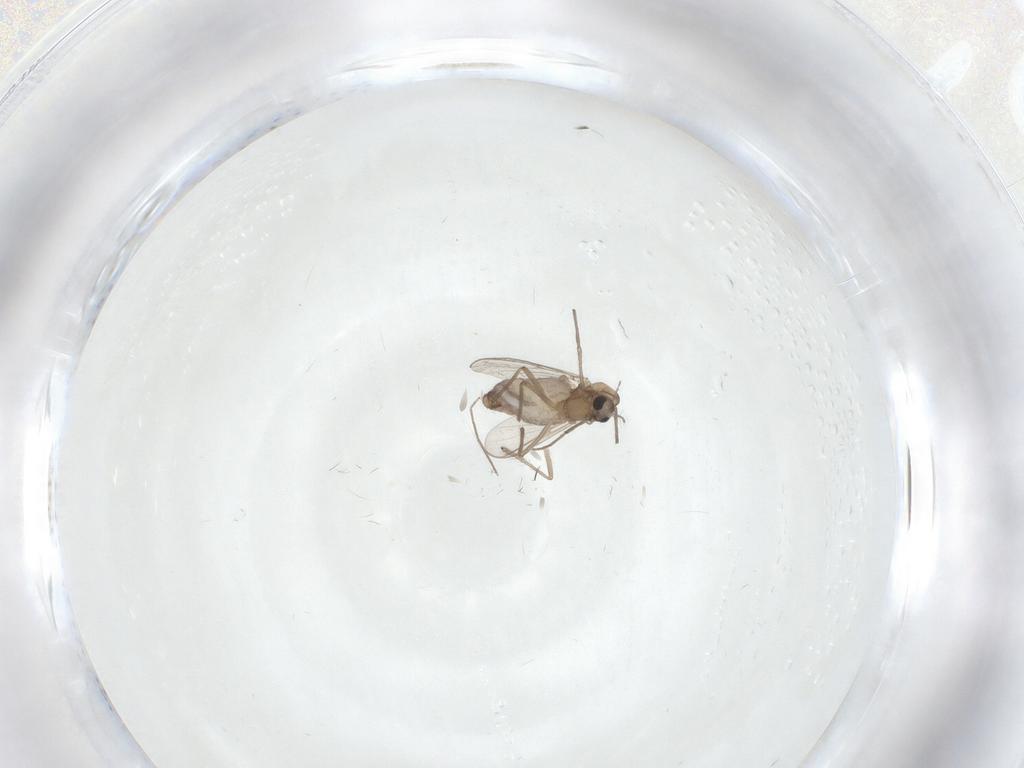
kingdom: Animalia
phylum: Arthropoda
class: Insecta
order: Diptera
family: Chironomidae
